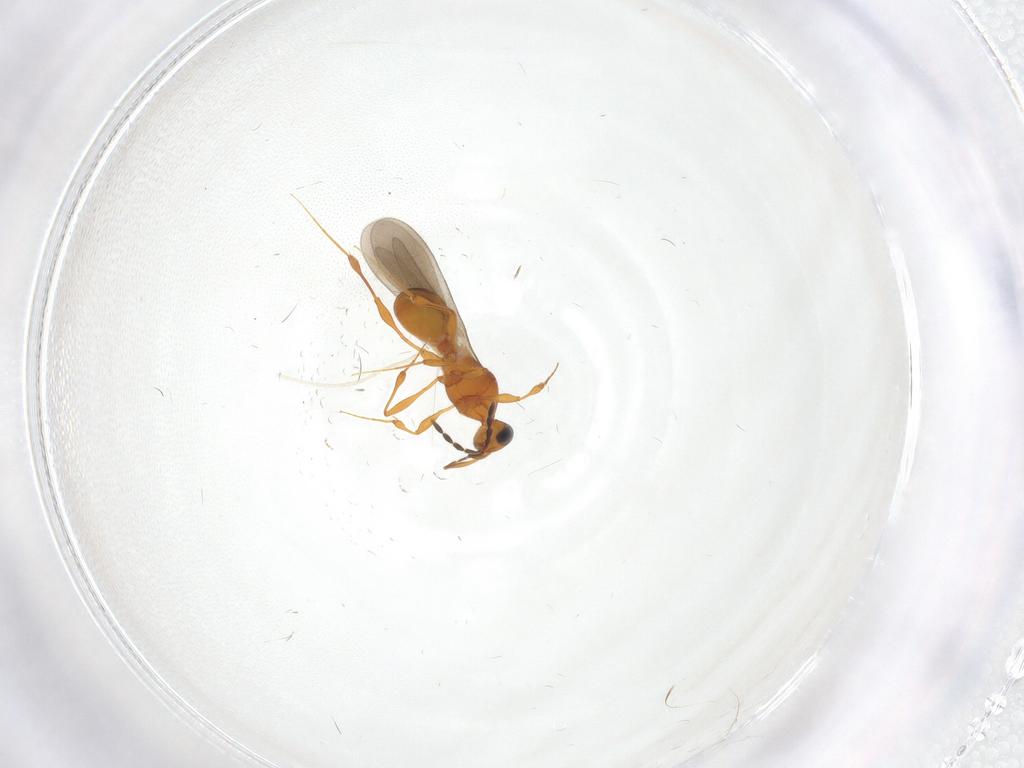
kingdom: Animalia
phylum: Arthropoda
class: Insecta
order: Hymenoptera
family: Platygastridae
